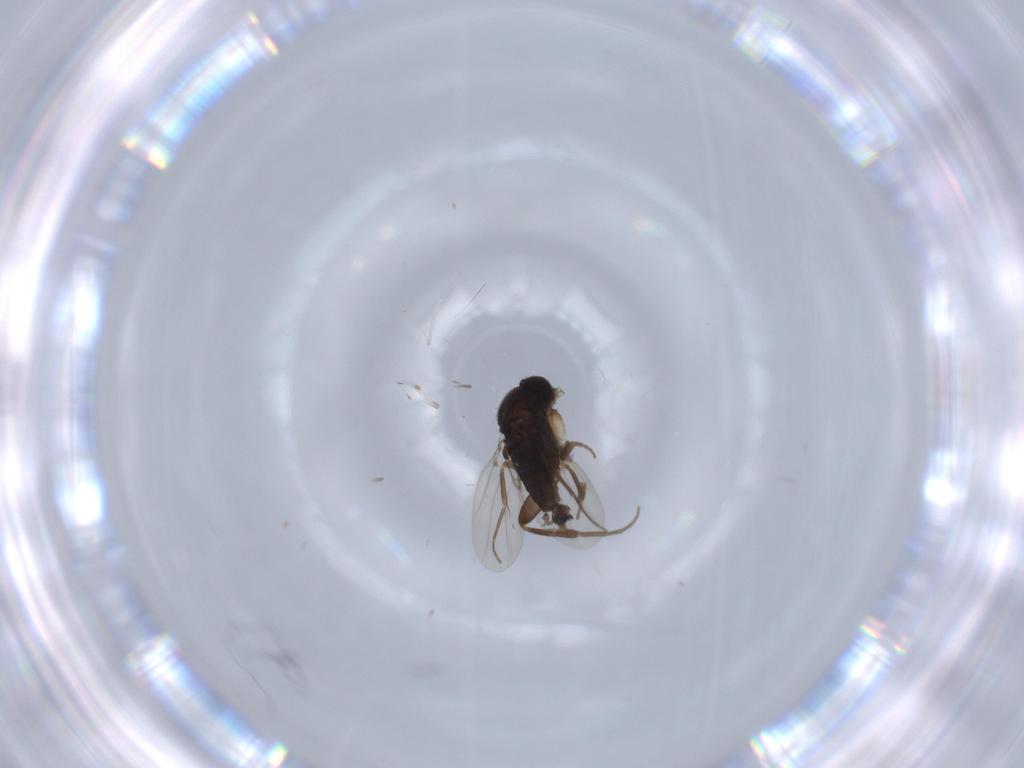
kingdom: Animalia
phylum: Arthropoda
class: Insecta
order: Diptera
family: Phoridae
